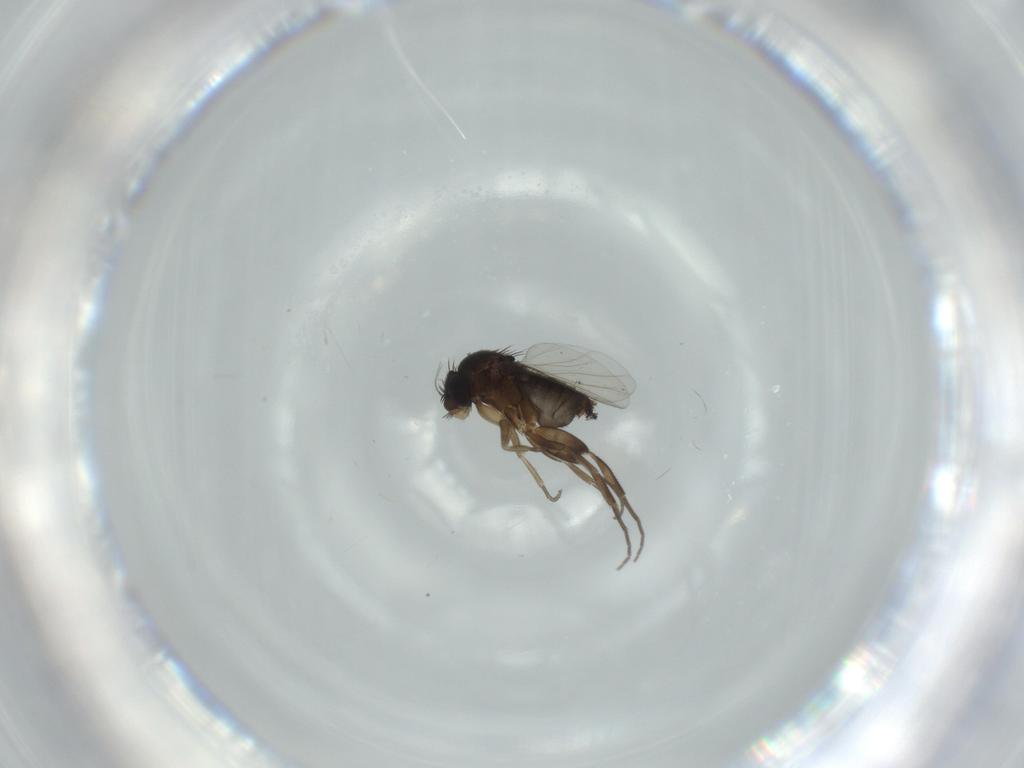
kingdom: Animalia
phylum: Arthropoda
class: Insecta
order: Diptera
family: Phoridae
